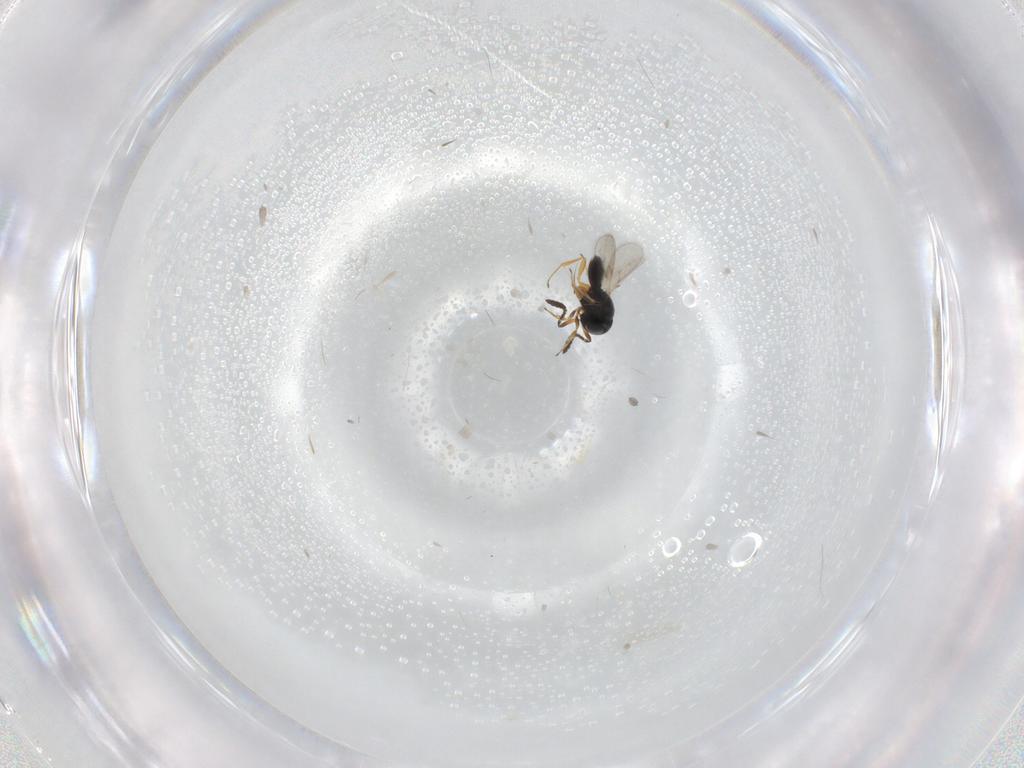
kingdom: Animalia
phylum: Arthropoda
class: Insecta
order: Hymenoptera
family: Scelionidae
